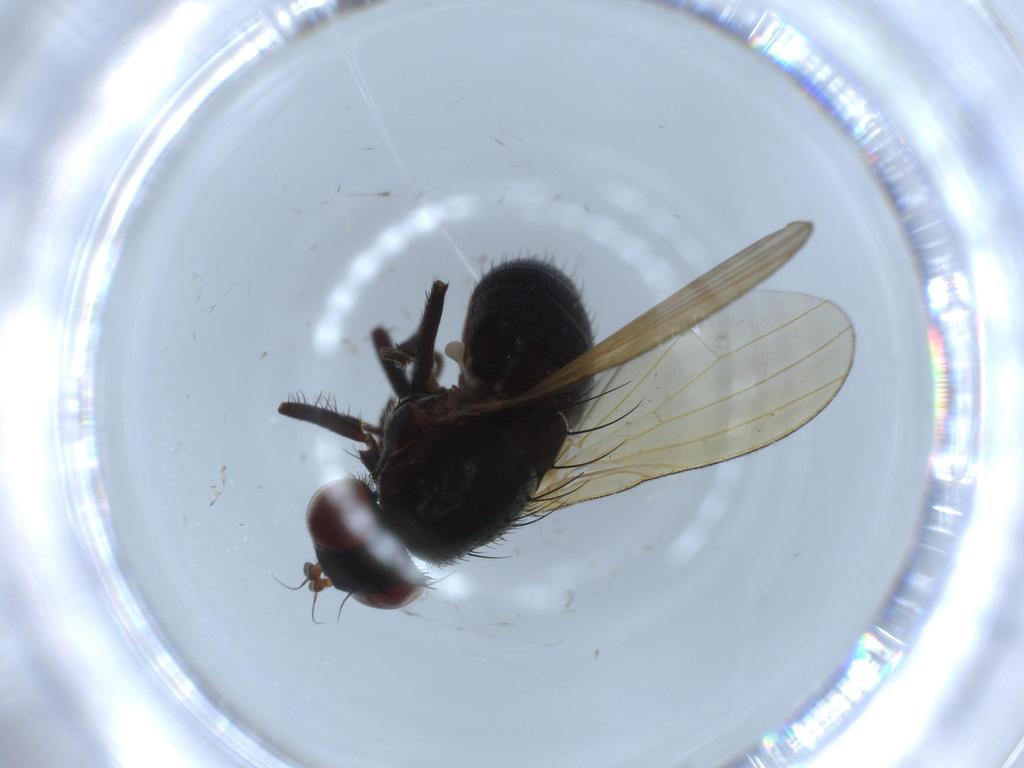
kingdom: Animalia
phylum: Arthropoda
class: Insecta
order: Diptera
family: Lauxaniidae
